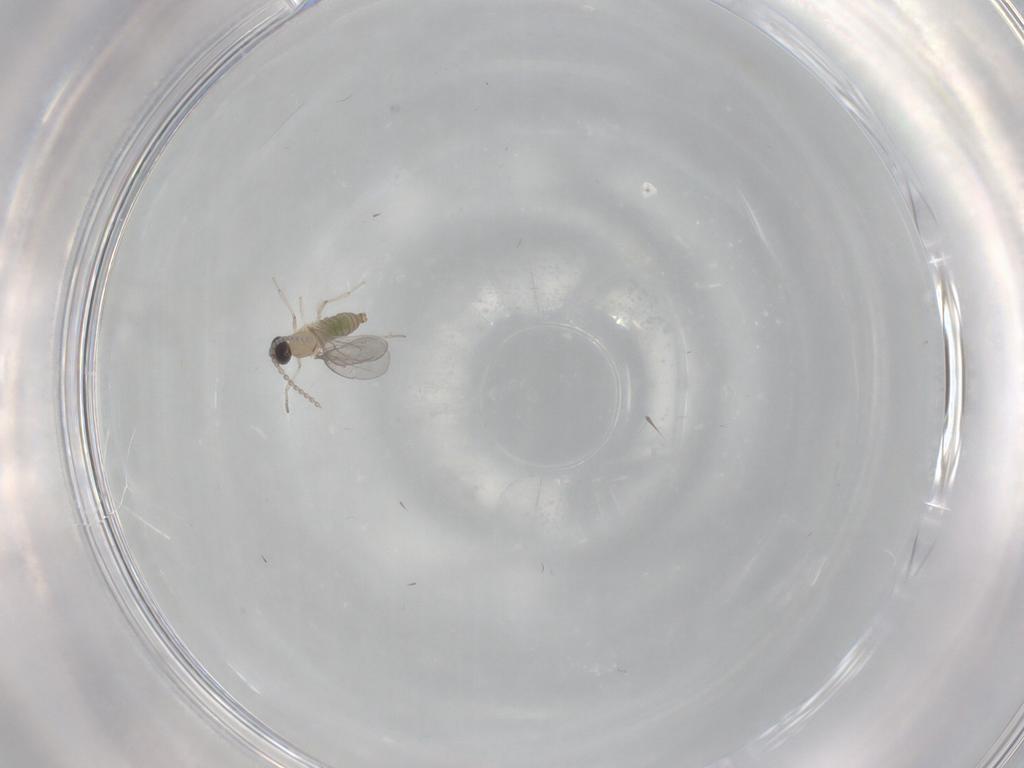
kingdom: Animalia
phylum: Arthropoda
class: Insecta
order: Diptera
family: Cecidomyiidae
